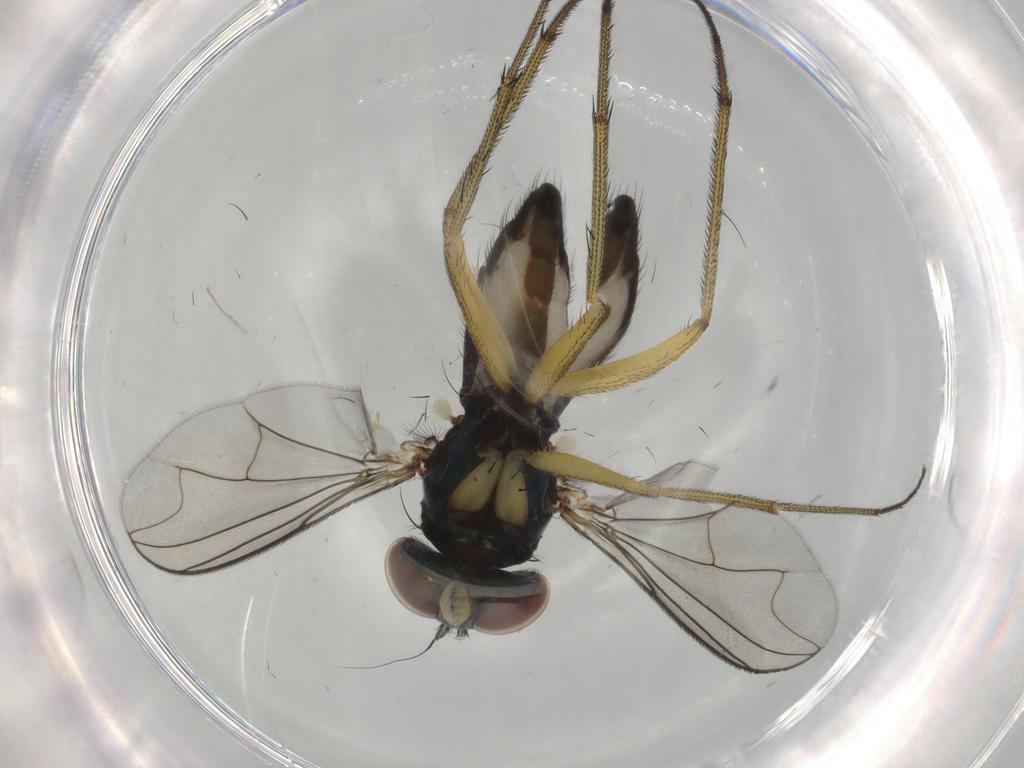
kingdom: Animalia
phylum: Arthropoda
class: Insecta
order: Diptera
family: Dolichopodidae
